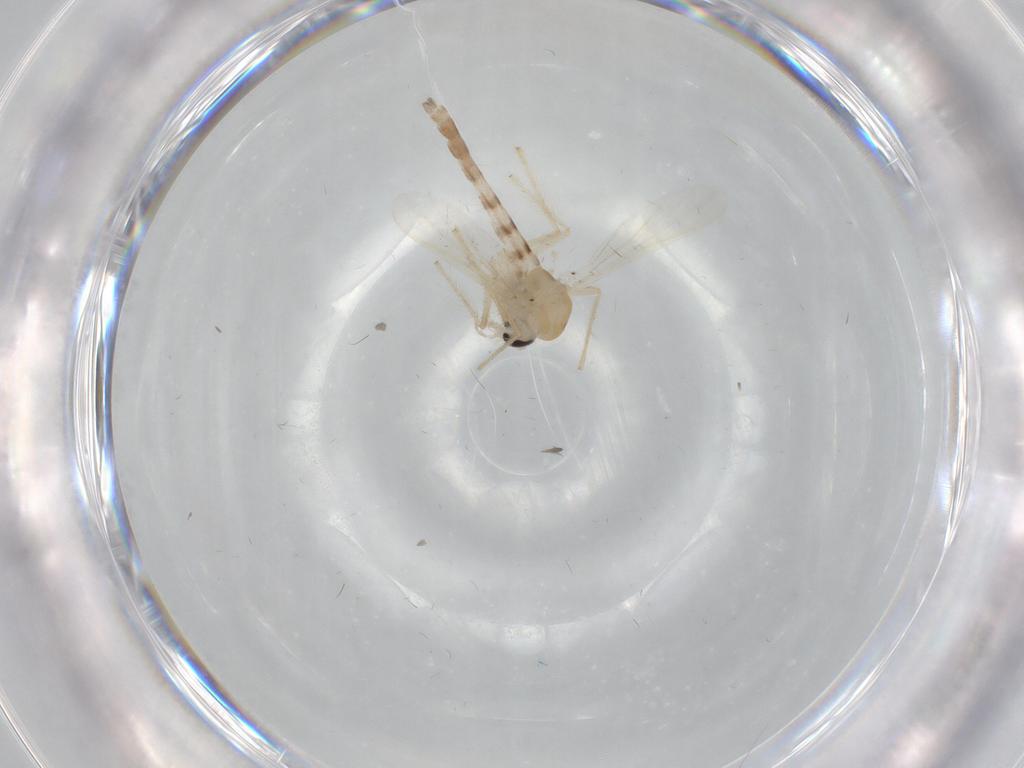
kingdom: Animalia
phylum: Arthropoda
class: Insecta
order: Diptera
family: Chironomidae
